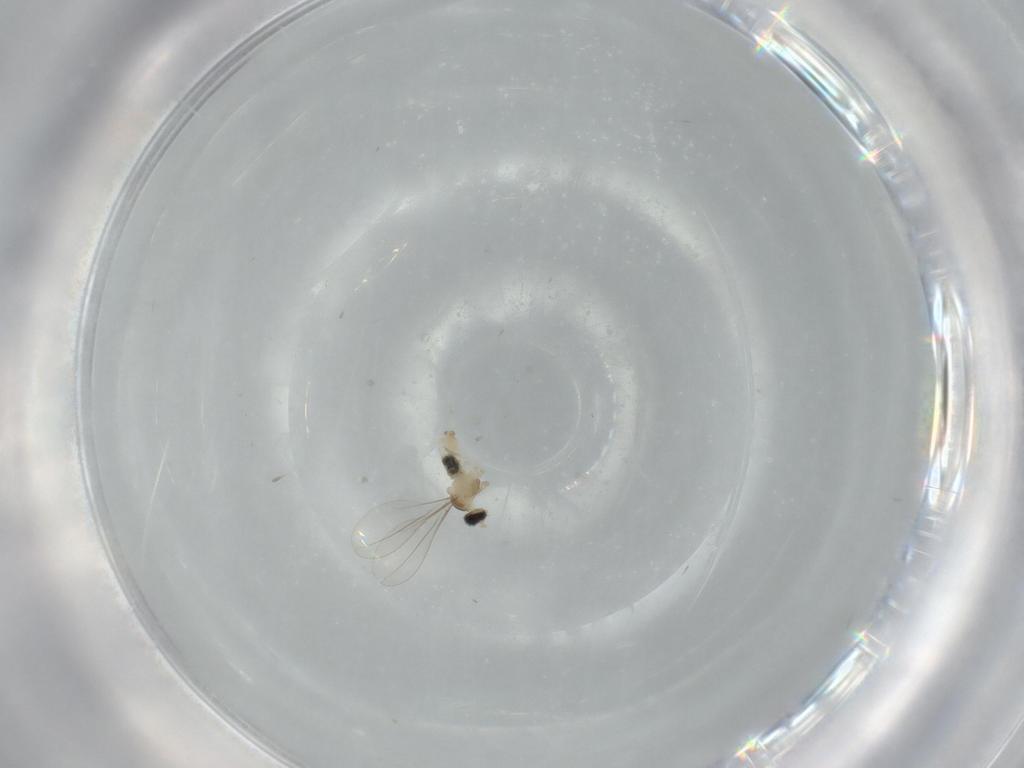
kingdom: Animalia
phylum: Arthropoda
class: Insecta
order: Diptera
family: Cecidomyiidae
